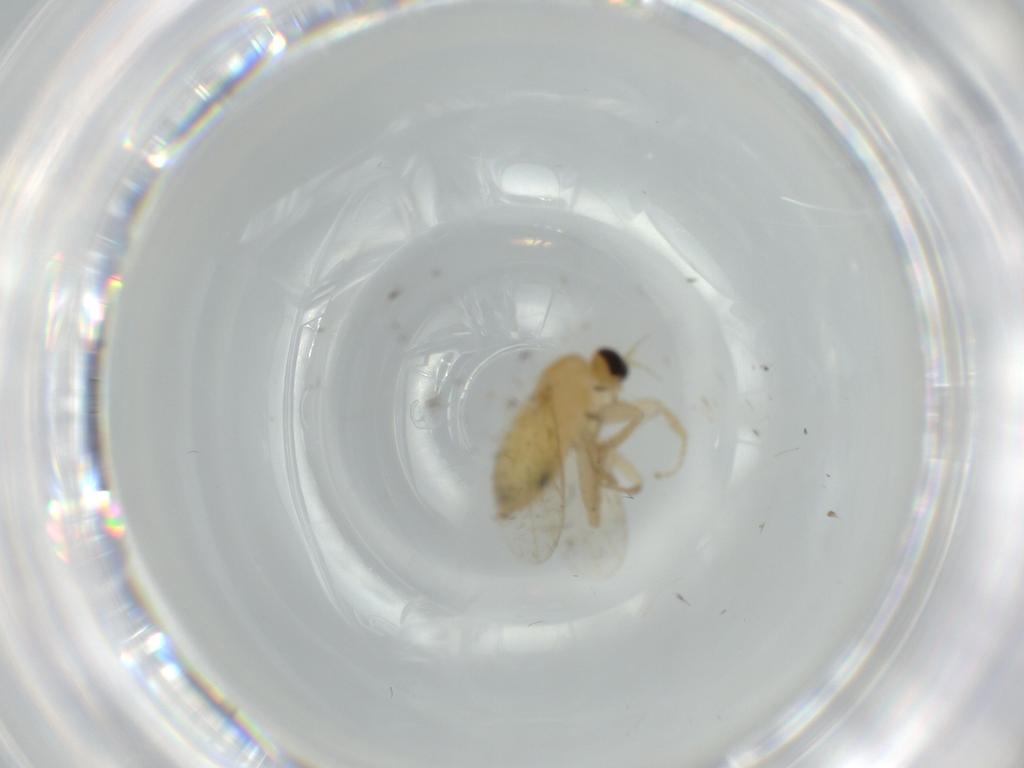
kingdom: Animalia
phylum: Arthropoda
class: Insecta
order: Diptera
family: Hybotidae
